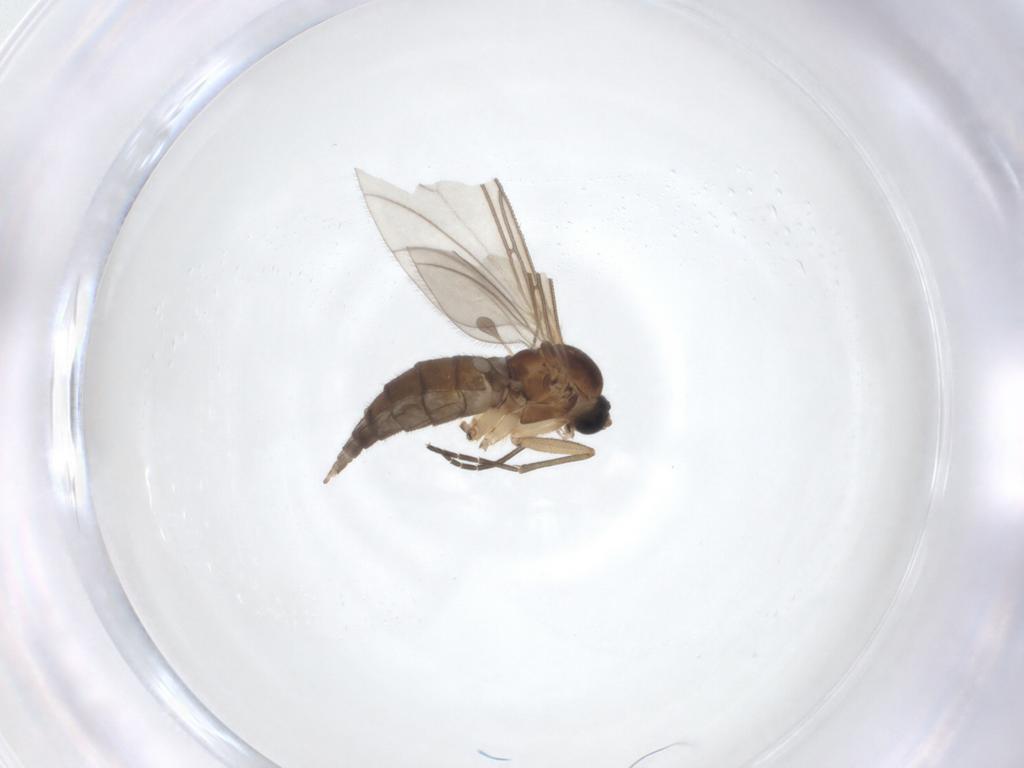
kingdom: Animalia
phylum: Arthropoda
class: Insecta
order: Diptera
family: Sciaridae
